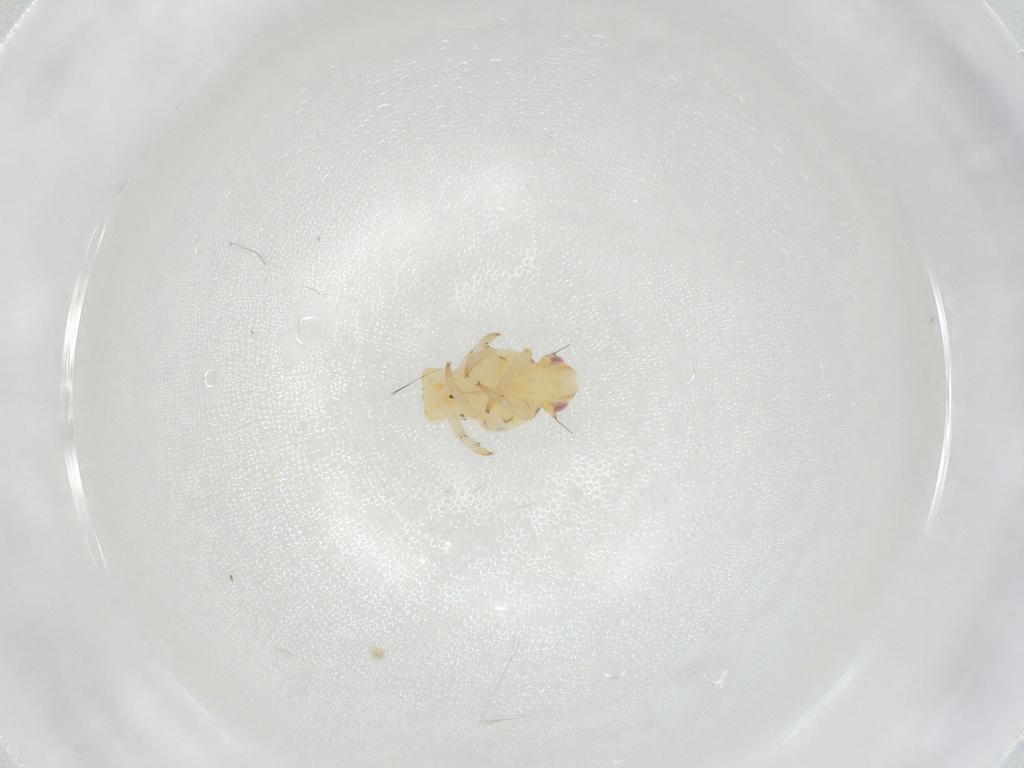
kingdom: Animalia
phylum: Arthropoda
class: Insecta
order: Hemiptera
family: Tropiduchidae
